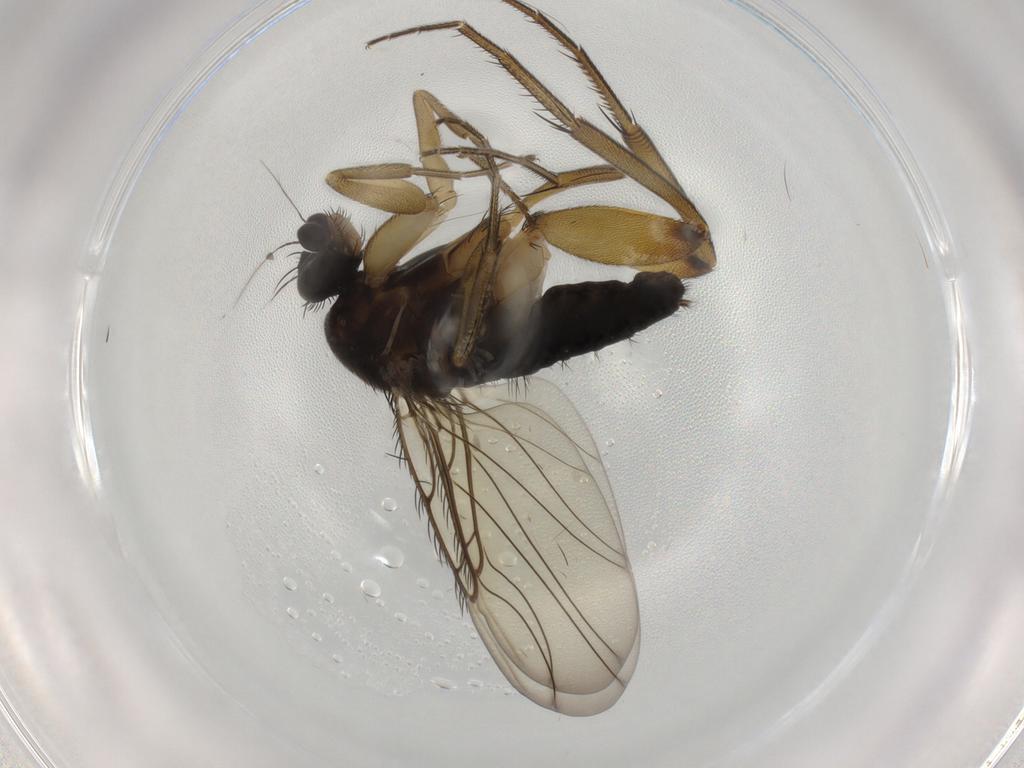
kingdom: Animalia
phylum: Arthropoda
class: Insecta
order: Diptera
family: Phoridae
